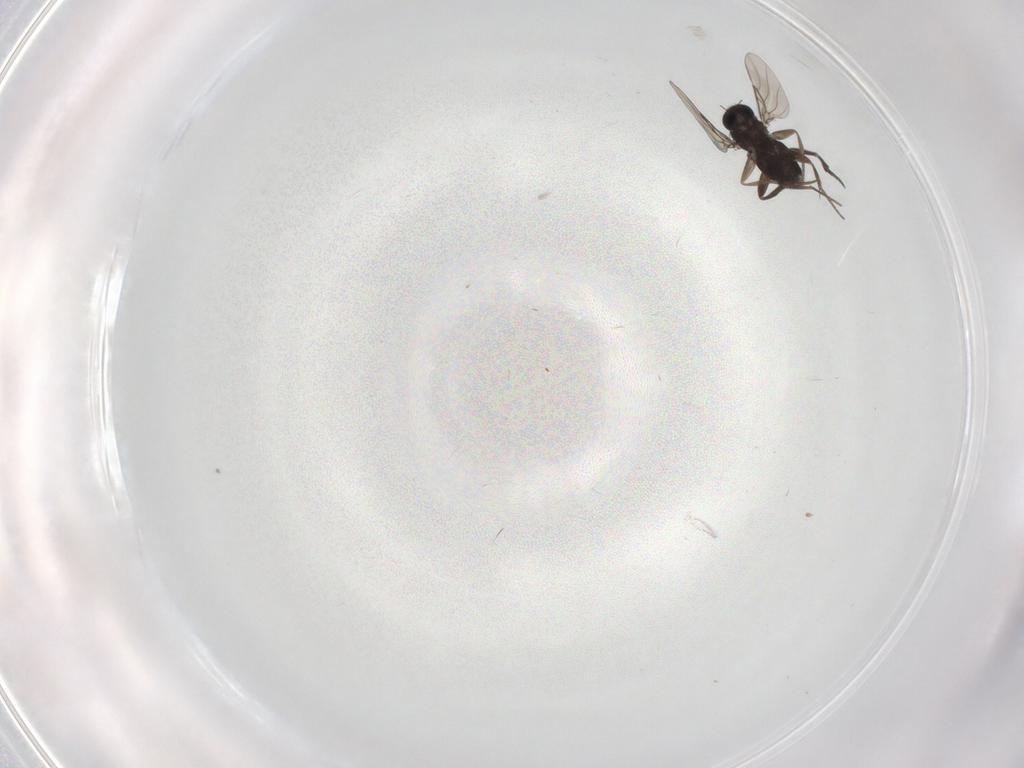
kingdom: Animalia
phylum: Arthropoda
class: Insecta
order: Diptera
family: Phoridae
